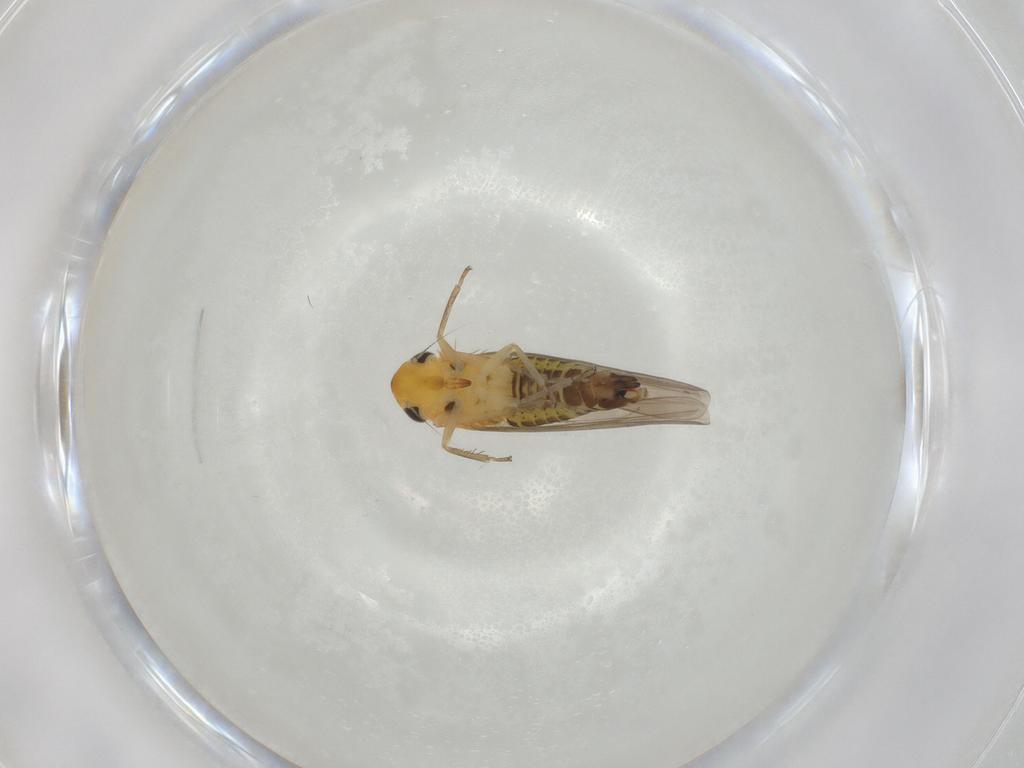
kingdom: Animalia
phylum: Arthropoda
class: Insecta
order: Hemiptera
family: Cicadellidae
